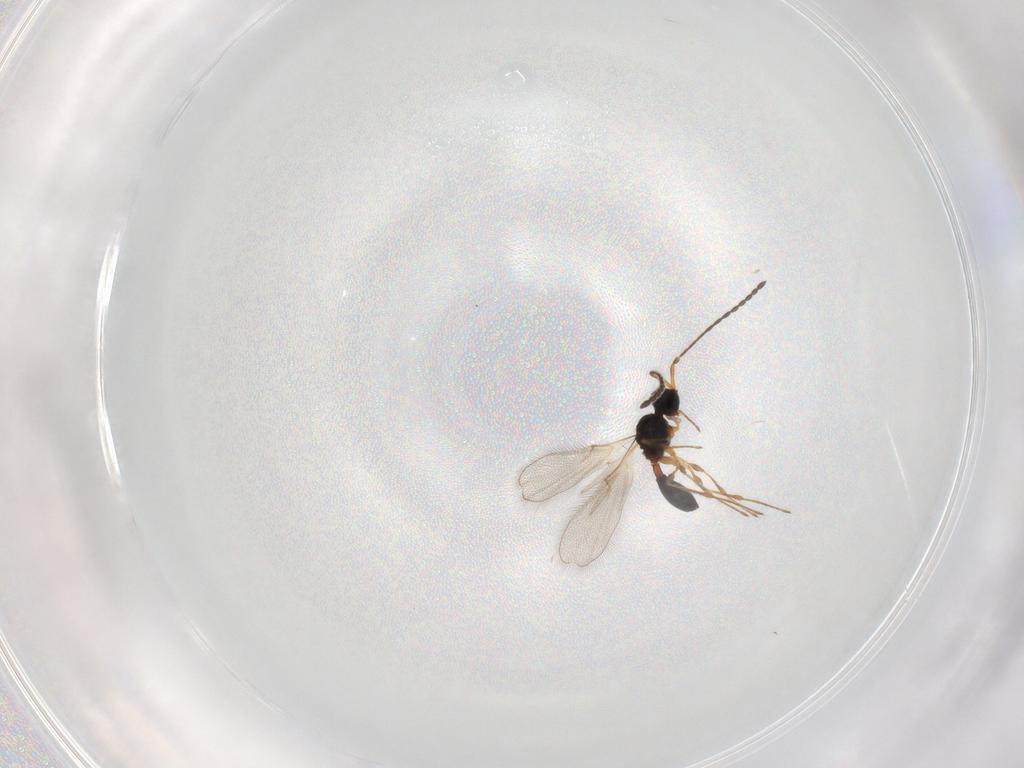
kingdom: Animalia
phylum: Arthropoda
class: Insecta
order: Hymenoptera
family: Diapriidae
